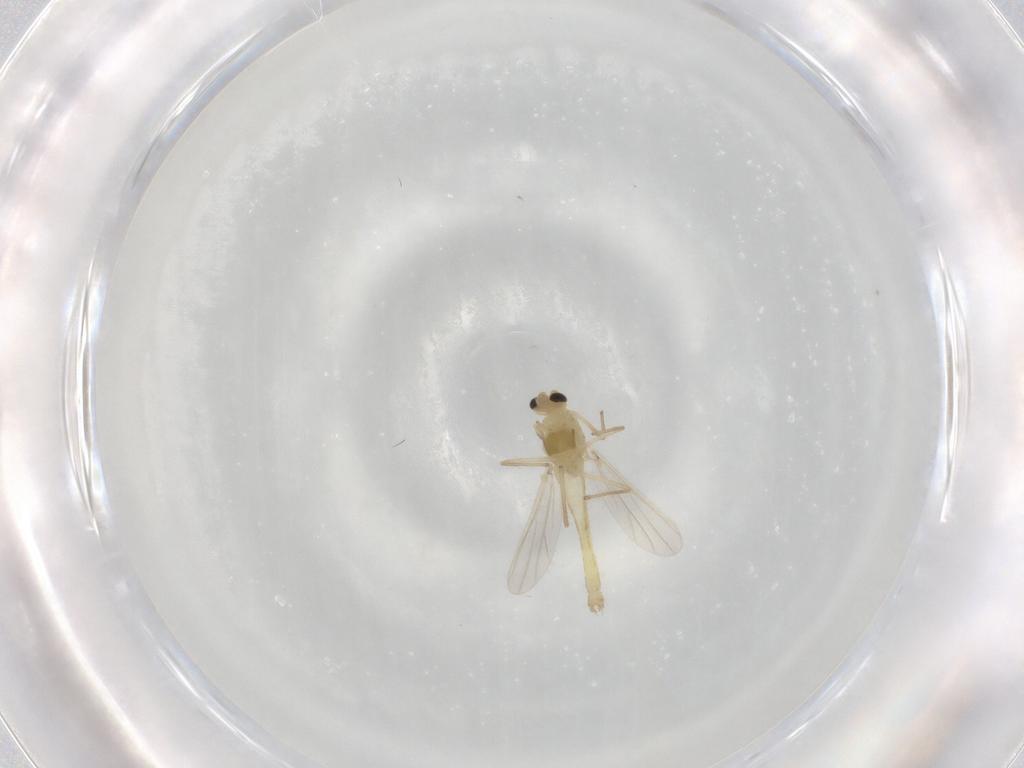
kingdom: Animalia
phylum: Arthropoda
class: Insecta
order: Diptera
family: Chironomidae
